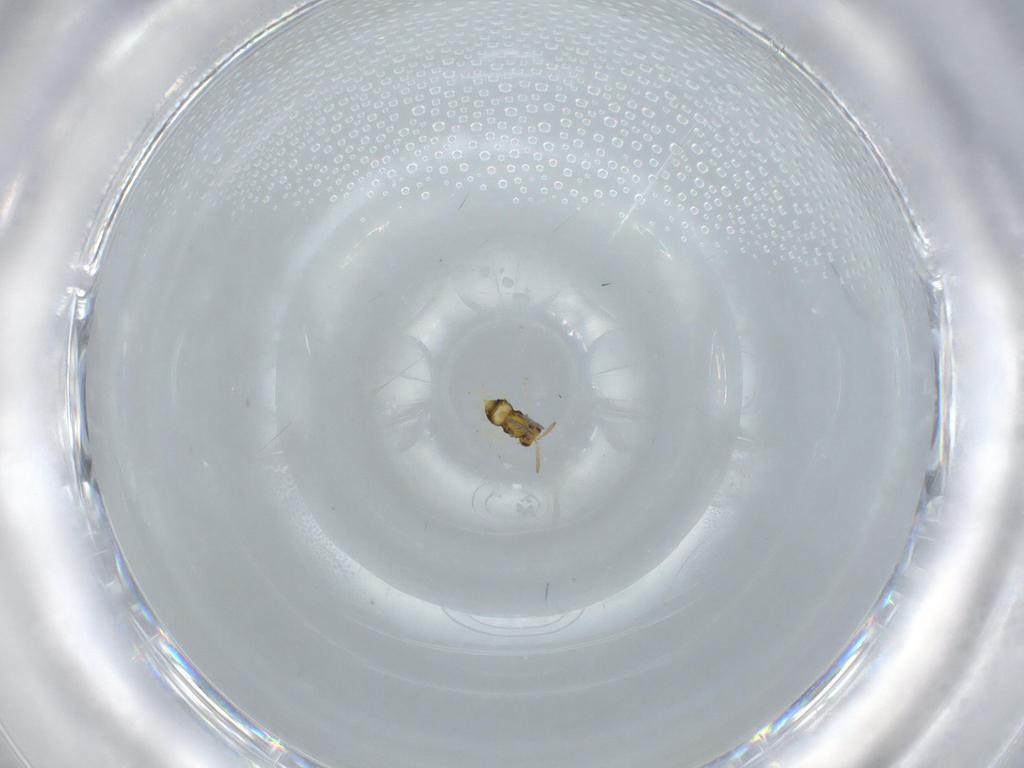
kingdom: Animalia
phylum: Arthropoda
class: Insecta
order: Hymenoptera
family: Aphelinidae
